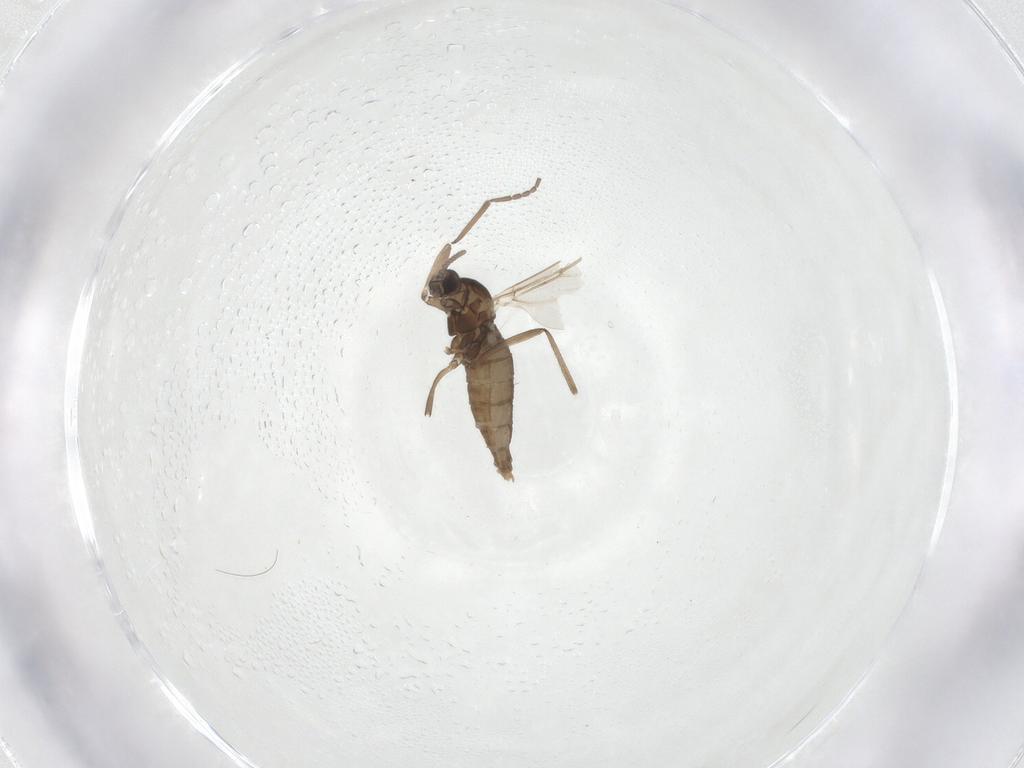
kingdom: Animalia
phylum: Arthropoda
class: Insecta
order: Diptera
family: Cecidomyiidae
